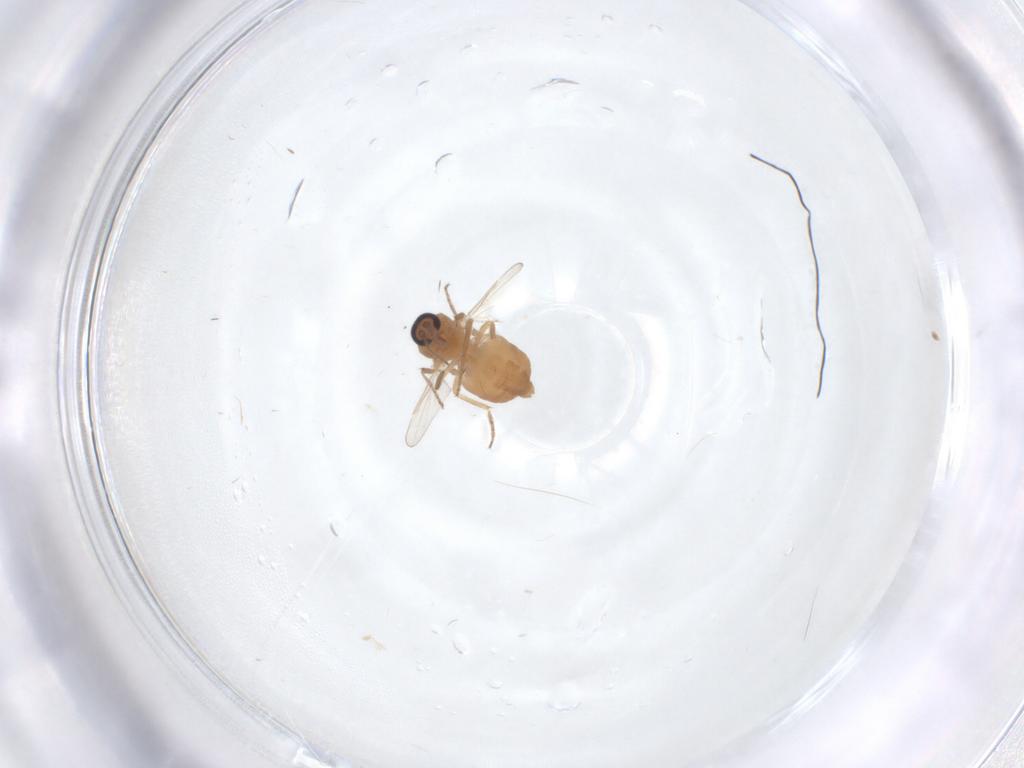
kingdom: Animalia
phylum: Arthropoda
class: Insecta
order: Diptera
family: Ceratopogonidae
